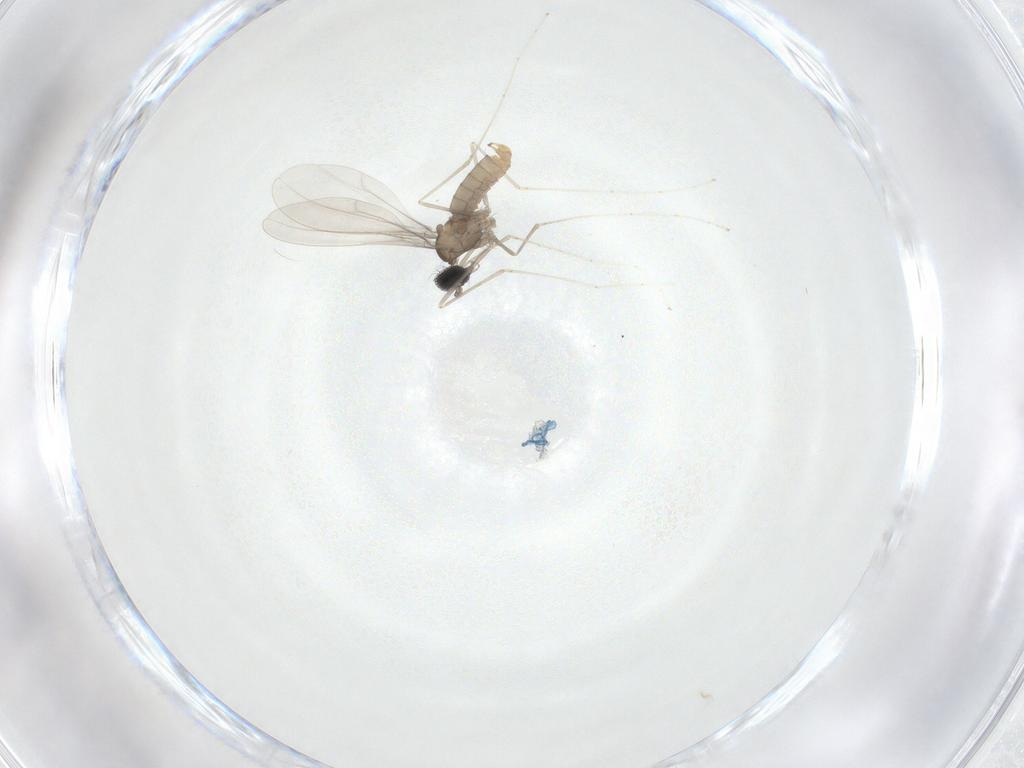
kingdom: Animalia
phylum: Arthropoda
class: Insecta
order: Diptera
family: Cecidomyiidae
